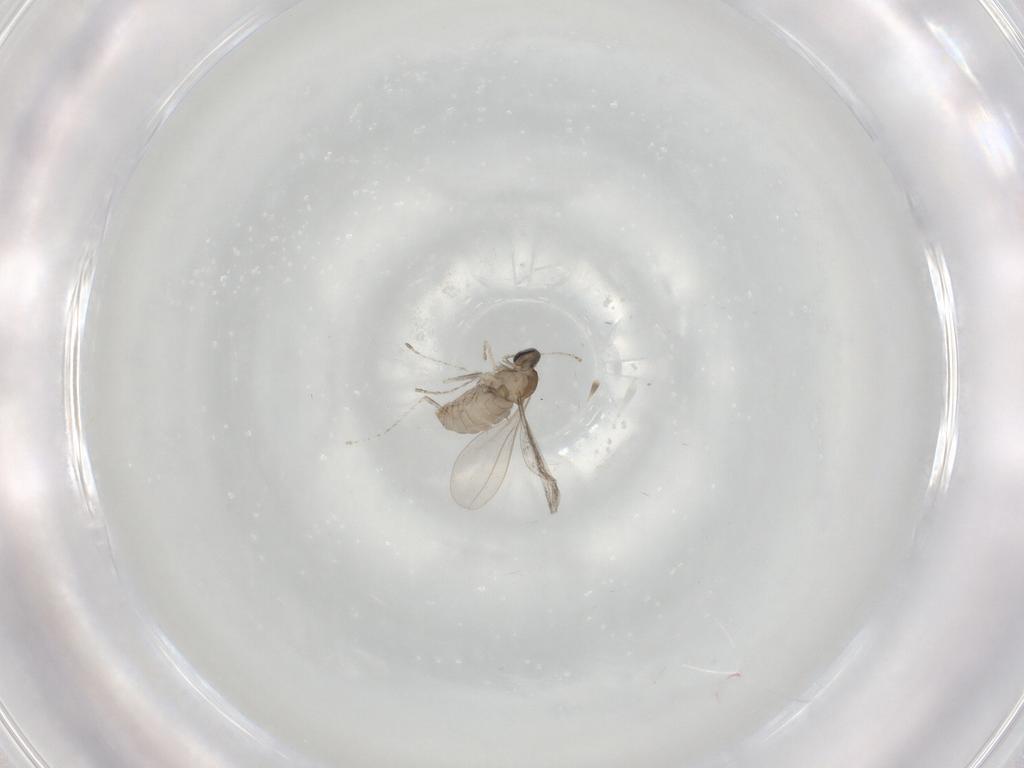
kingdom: Animalia
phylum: Arthropoda
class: Insecta
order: Diptera
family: Cecidomyiidae
